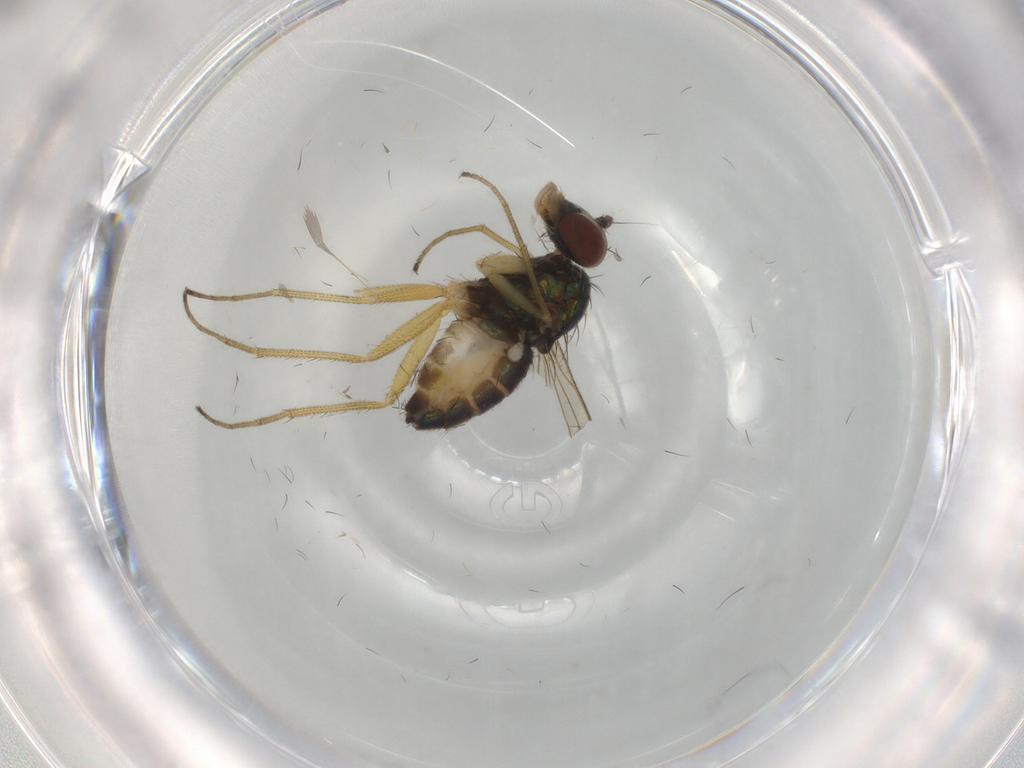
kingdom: Animalia
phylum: Arthropoda
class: Insecta
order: Diptera
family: Dolichopodidae
